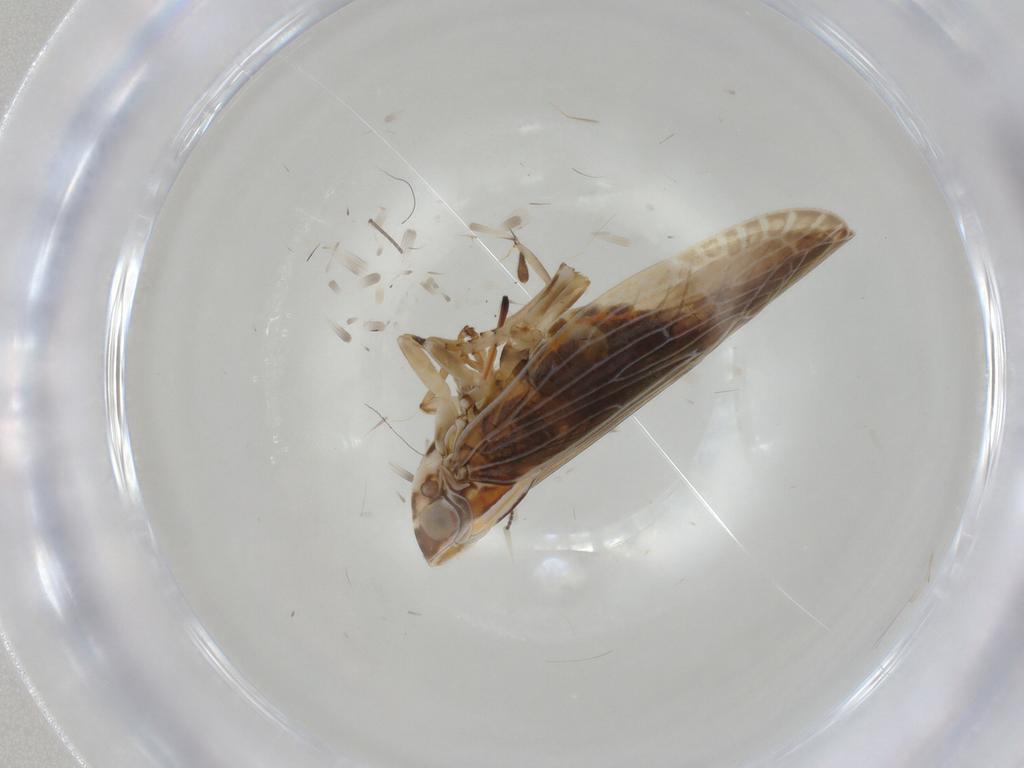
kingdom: Animalia
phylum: Arthropoda
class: Insecta
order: Hemiptera
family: Achilidae
